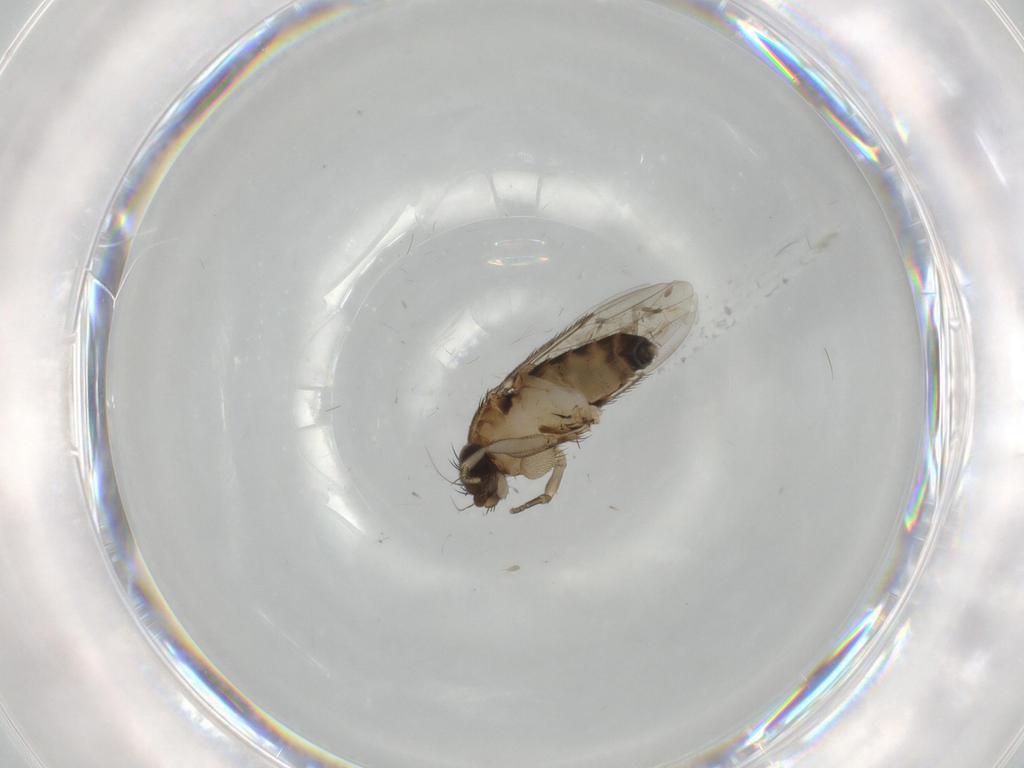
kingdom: Animalia
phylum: Arthropoda
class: Insecta
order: Diptera
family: Phoridae
